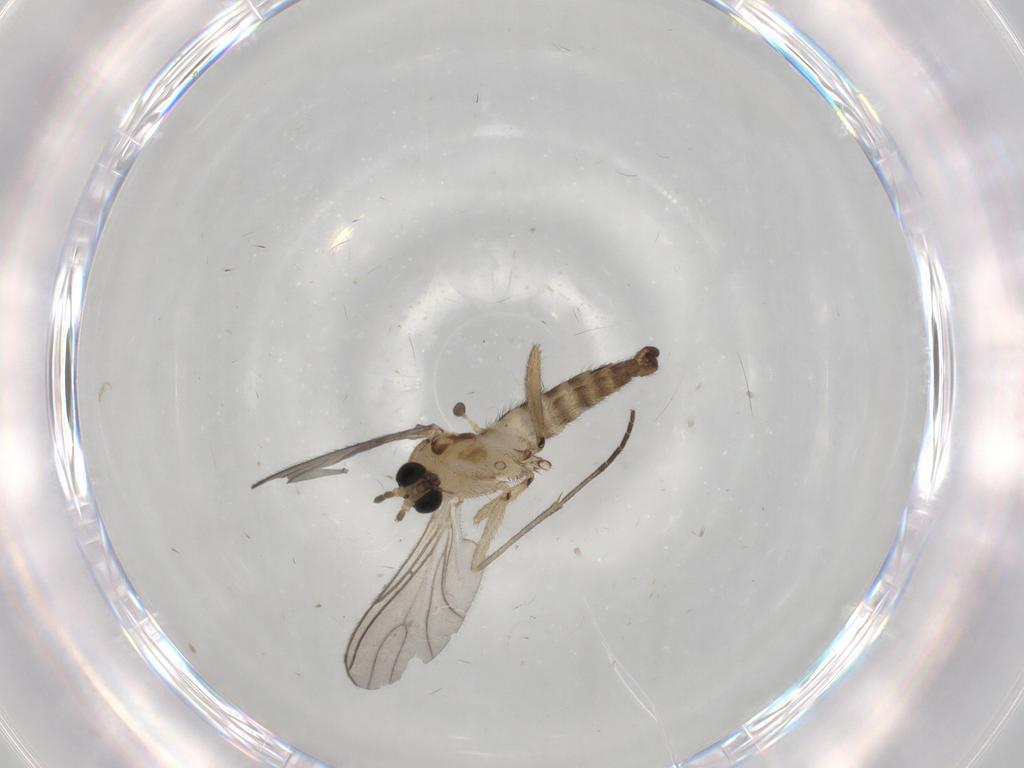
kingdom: Animalia
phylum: Arthropoda
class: Insecta
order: Diptera
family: Sciaridae
